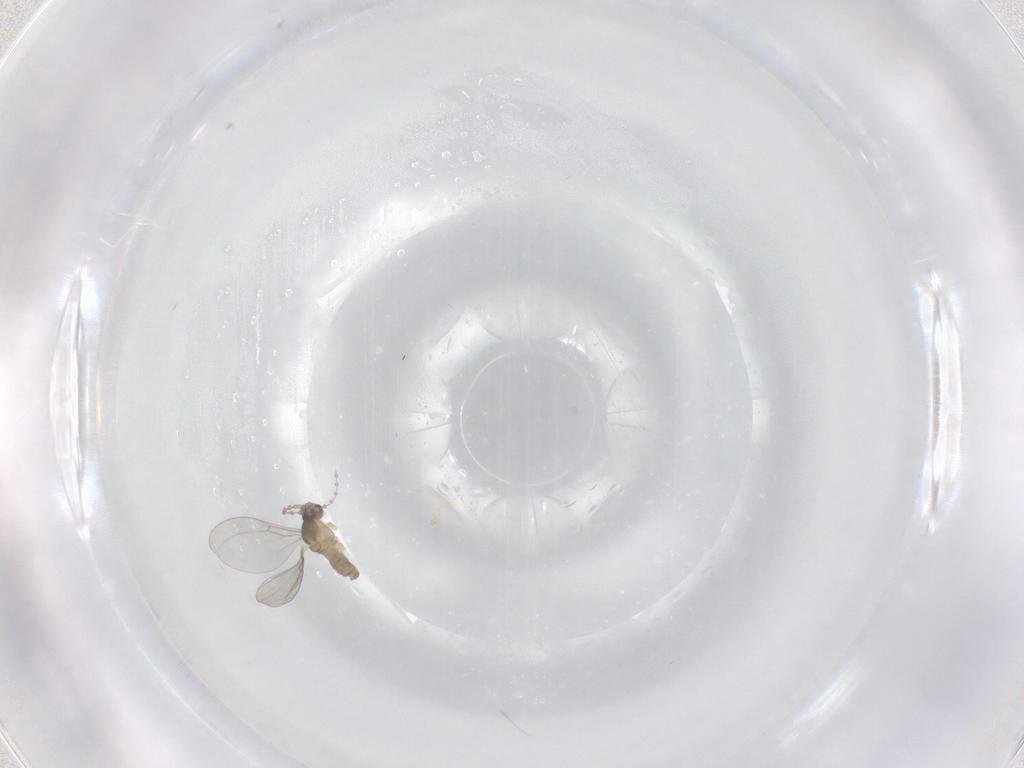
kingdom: Animalia
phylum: Arthropoda
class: Insecta
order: Diptera
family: Cecidomyiidae
